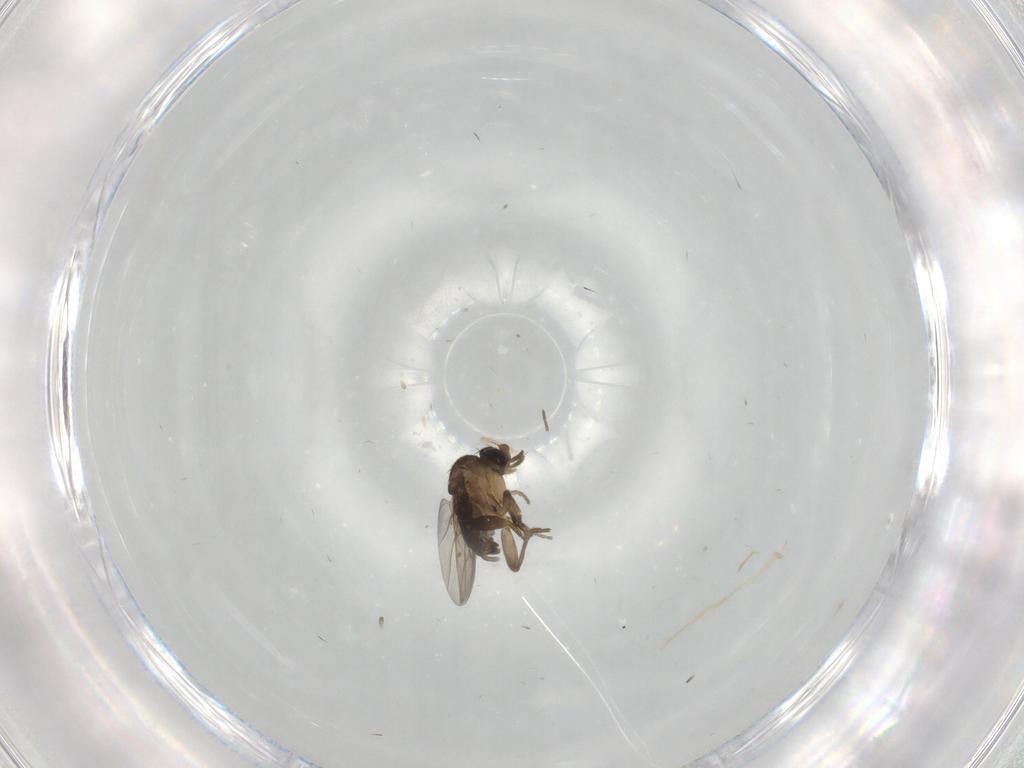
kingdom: Animalia
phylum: Arthropoda
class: Insecta
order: Diptera
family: Phoridae
